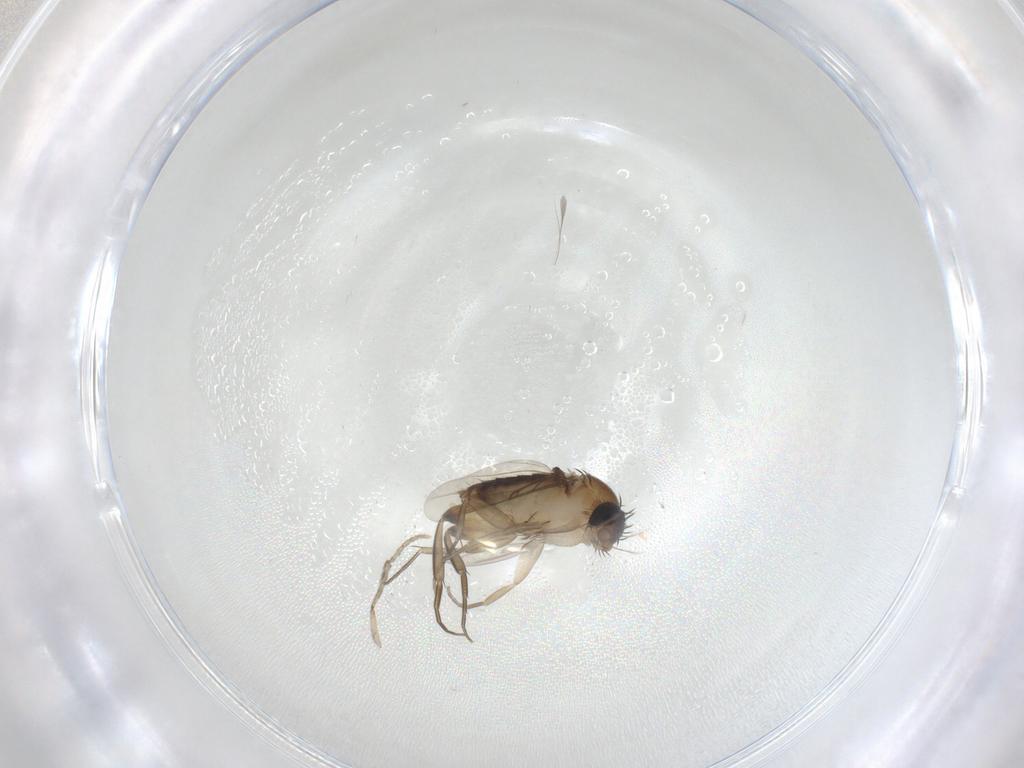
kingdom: Animalia
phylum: Arthropoda
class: Insecta
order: Diptera
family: Phoridae
